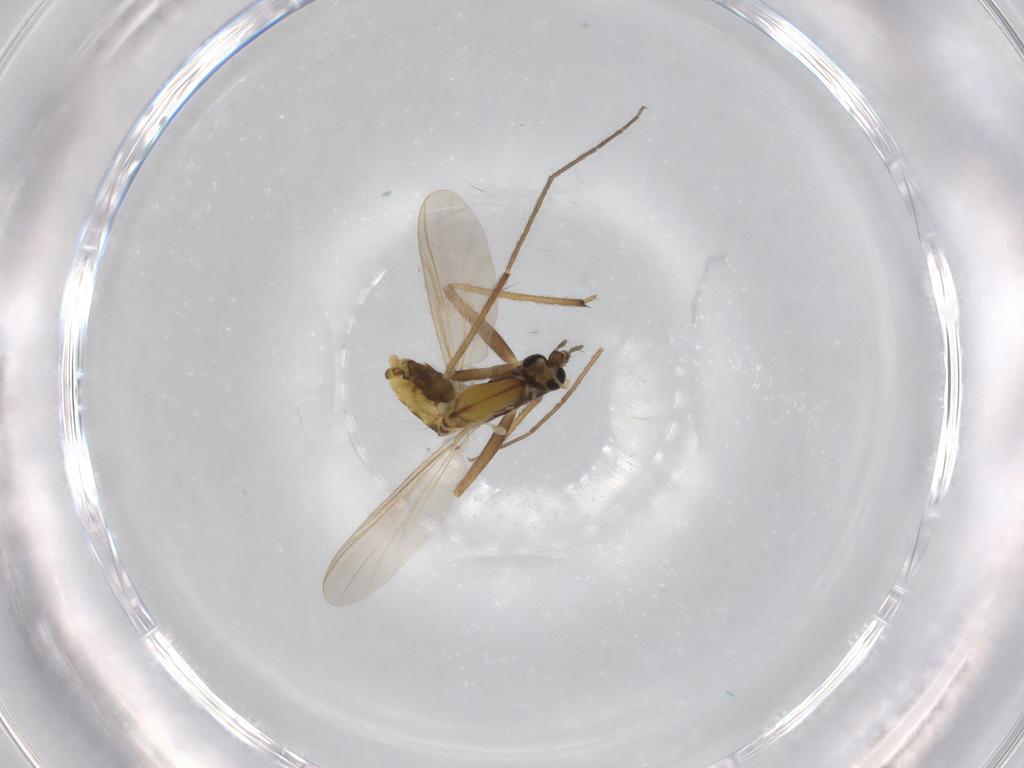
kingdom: Animalia
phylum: Arthropoda
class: Insecta
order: Diptera
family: Chironomidae
